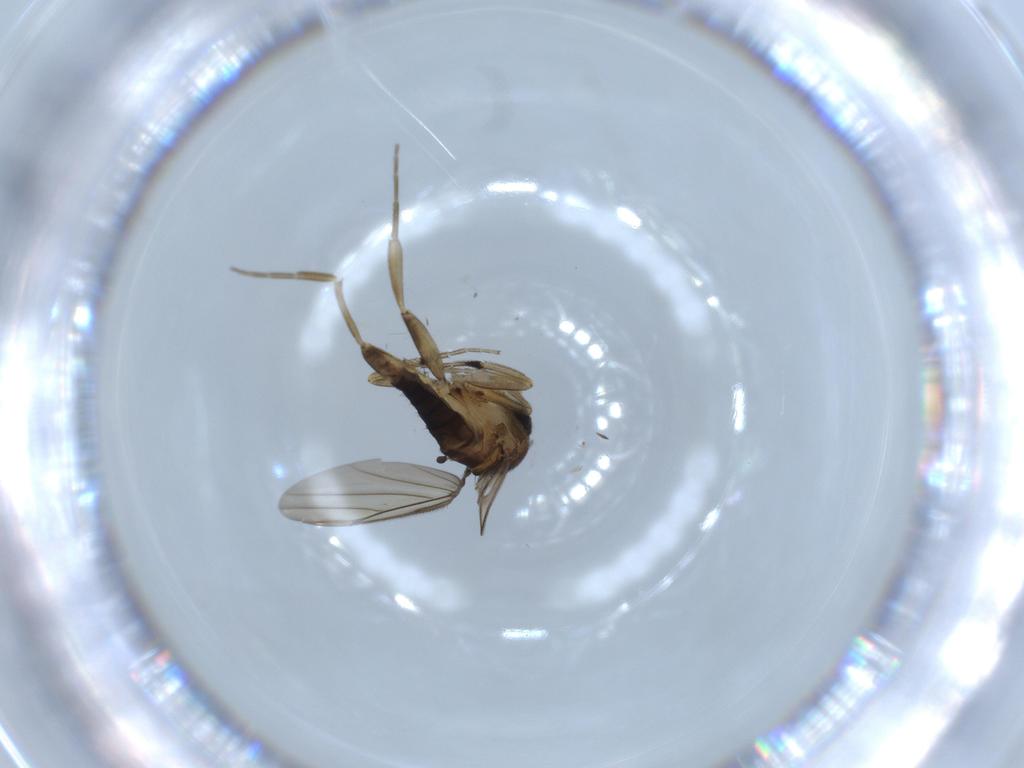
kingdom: Animalia
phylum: Arthropoda
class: Insecta
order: Diptera
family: Phoridae
